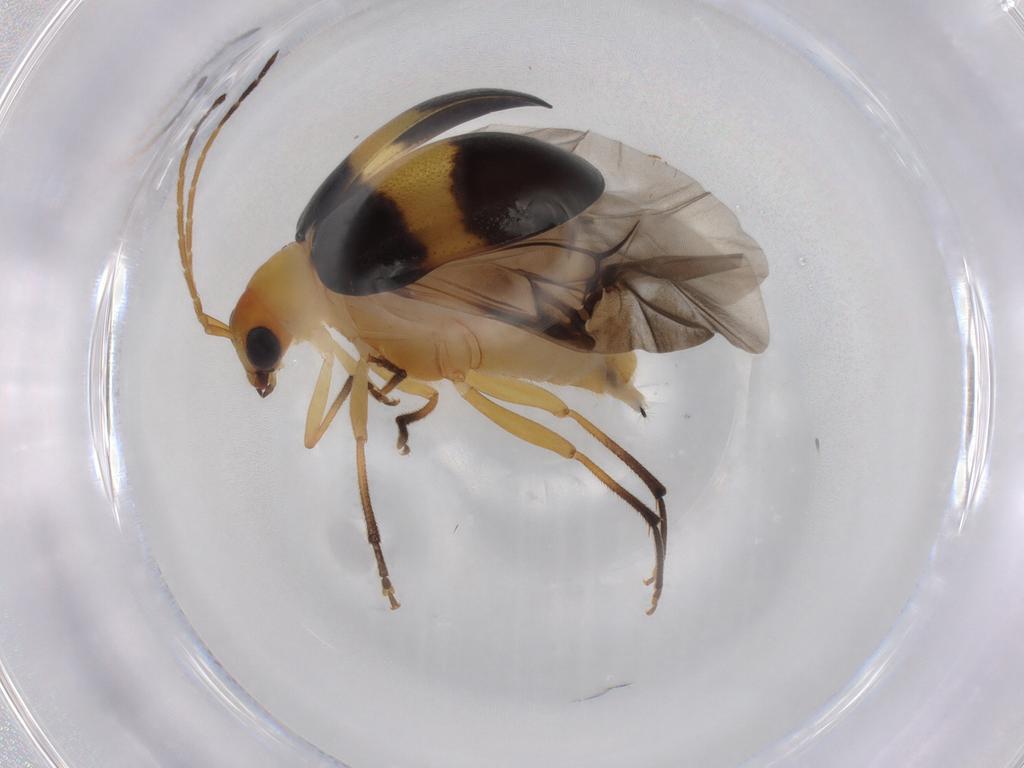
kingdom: Animalia
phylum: Arthropoda
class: Insecta
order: Coleoptera
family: Chrysomelidae
